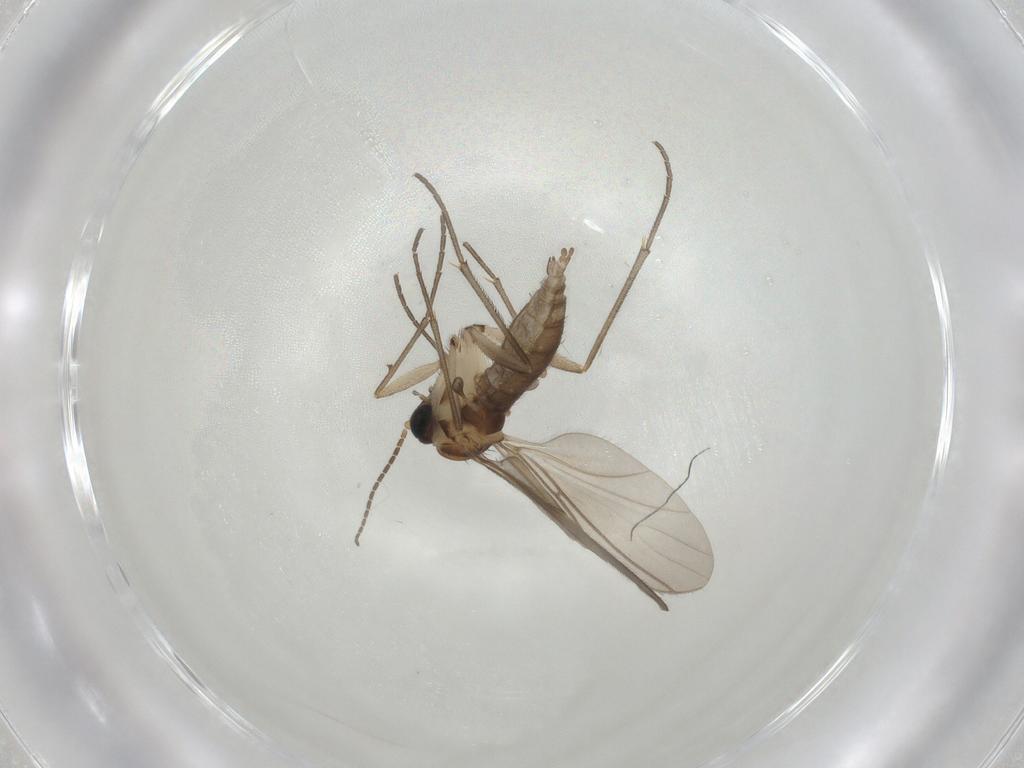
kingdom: Animalia
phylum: Arthropoda
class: Insecta
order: Diptera
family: Sciaridae
